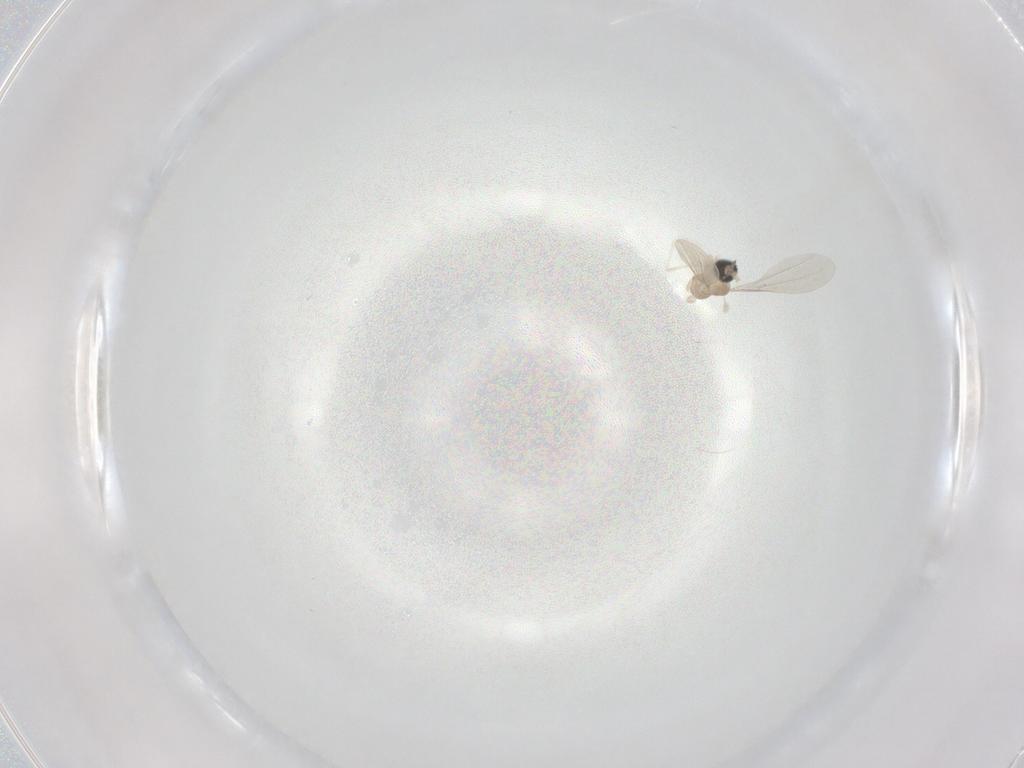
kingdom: Animalia
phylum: Arthropoda
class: Insecta
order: Diptera
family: Cecidomyiidae
